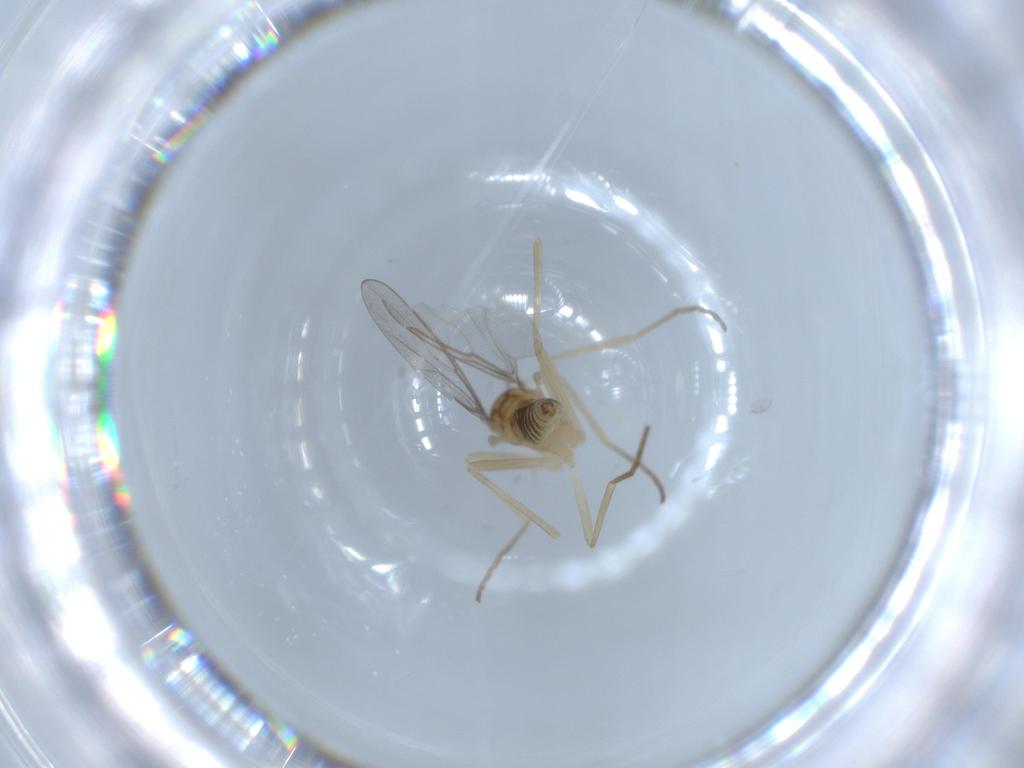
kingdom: Animalia
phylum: Arthropoda
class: Insecta
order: Diptera
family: Cecidomyiidae
